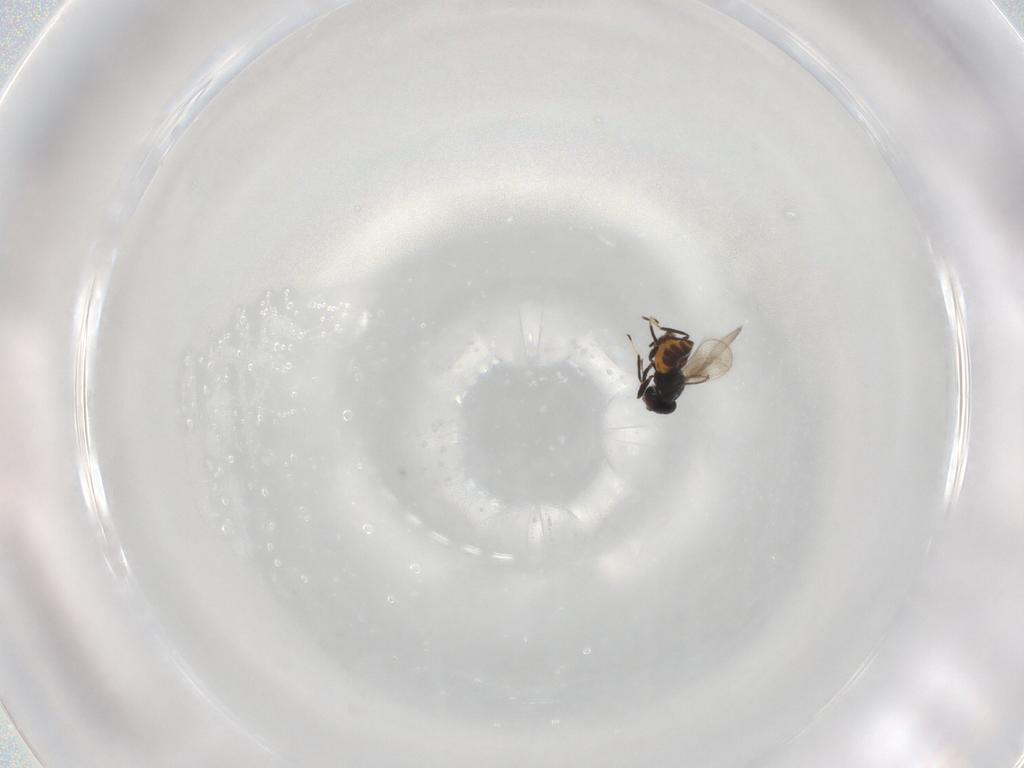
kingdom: Animalia
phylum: Arthropoda
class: Insecta
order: Hymenoptera
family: Eulophidae
